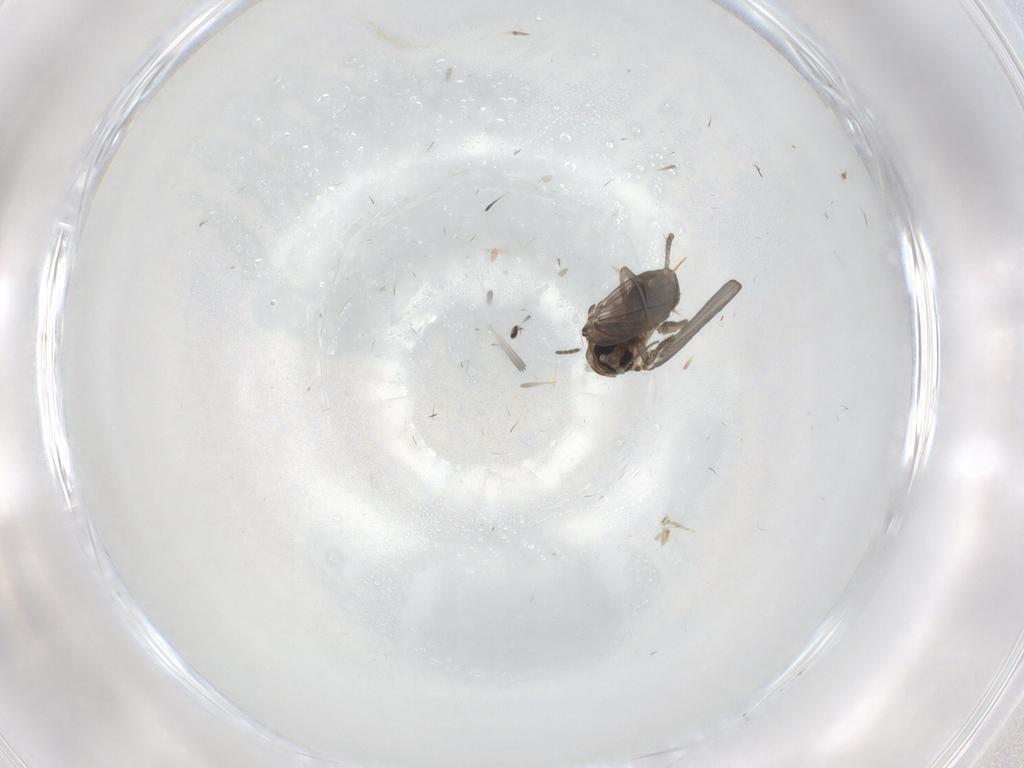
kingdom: Animalia
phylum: Arthropoda
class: Insecta
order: Diptera
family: Psychodidae
